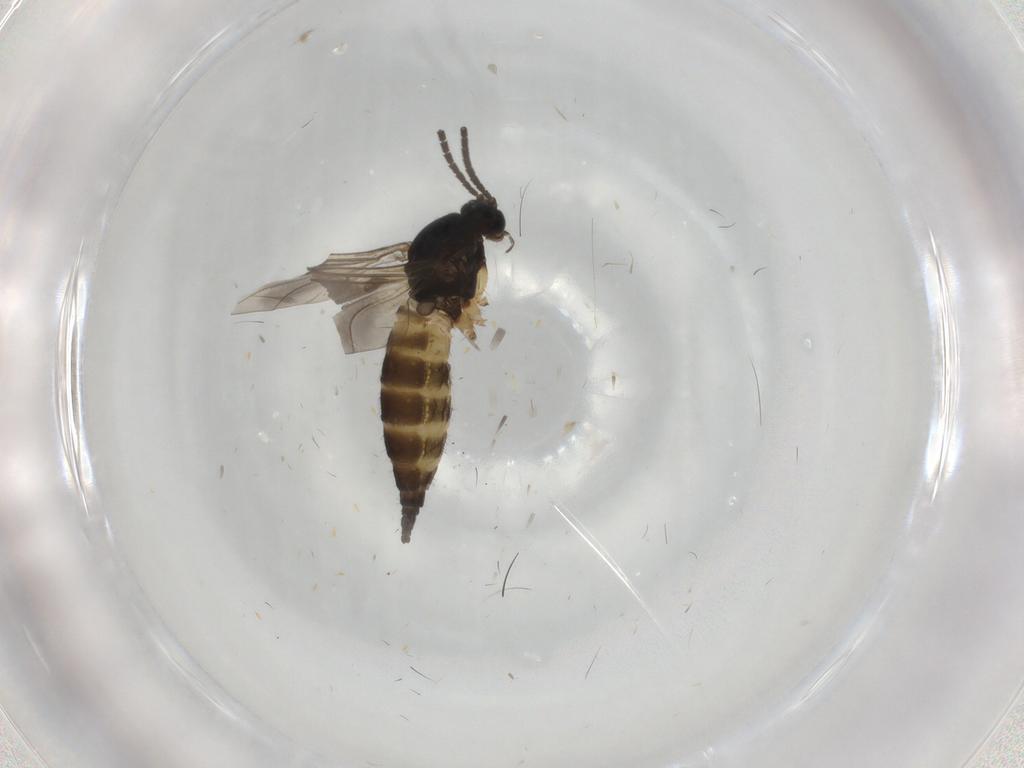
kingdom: Animalia
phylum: Arthropoda
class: Insecta
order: Diptera
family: Sciaridae
